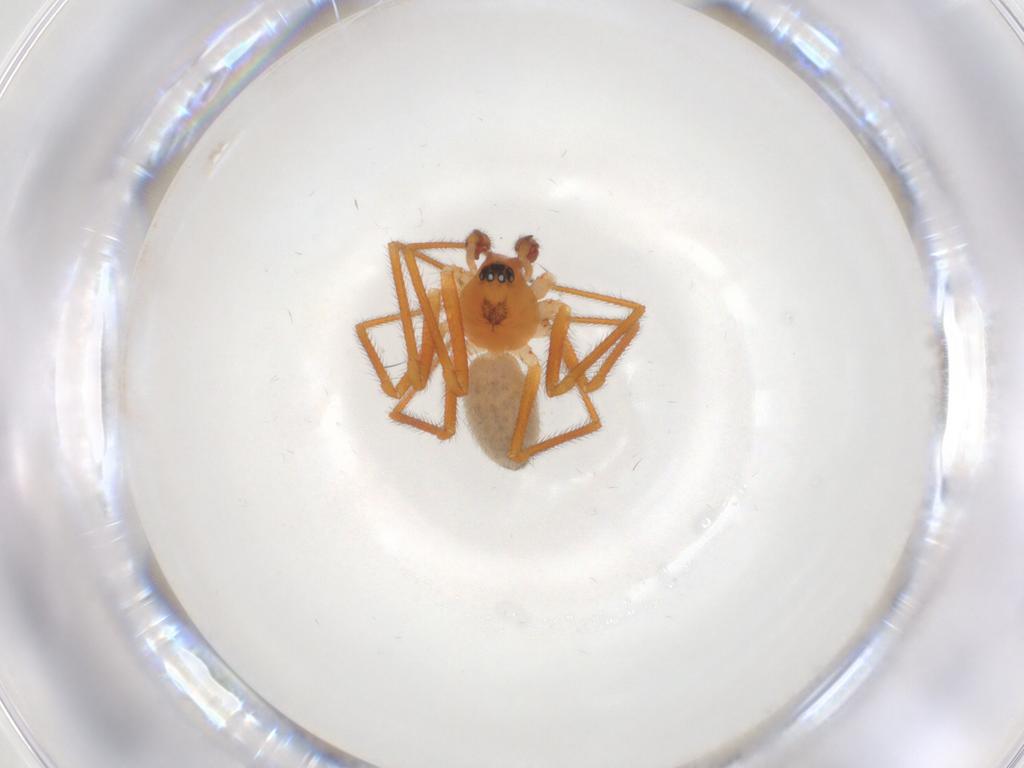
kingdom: Animalia
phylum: Arthropoda
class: Arachnida
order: Araneae
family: Linyphiidae
